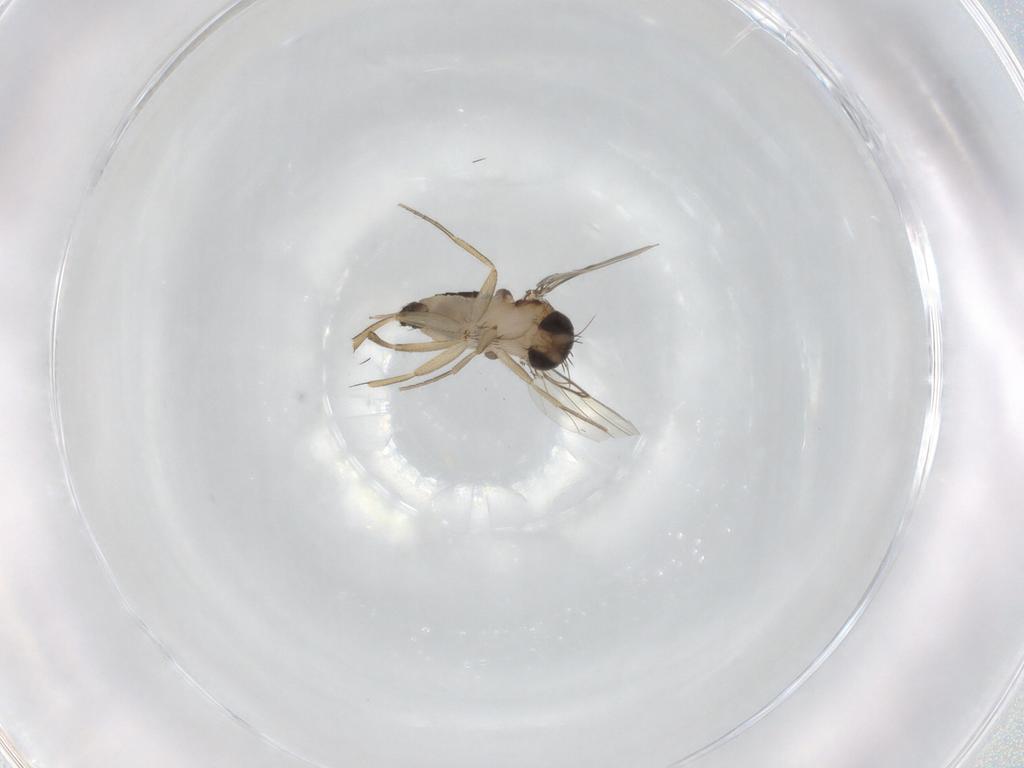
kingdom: Animalia
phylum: Arthropoda
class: Insecta
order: Diptera
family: Phoridae
